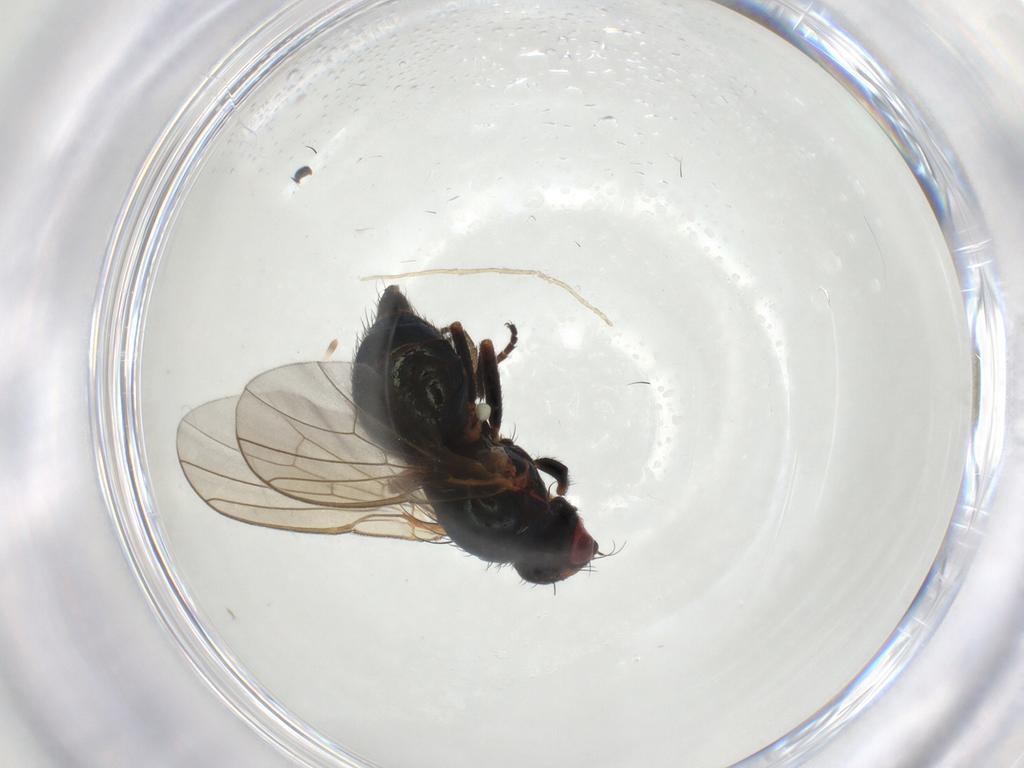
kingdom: Animalia
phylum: Arthropoda
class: Insecta
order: Diptera
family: Agromyzidae
